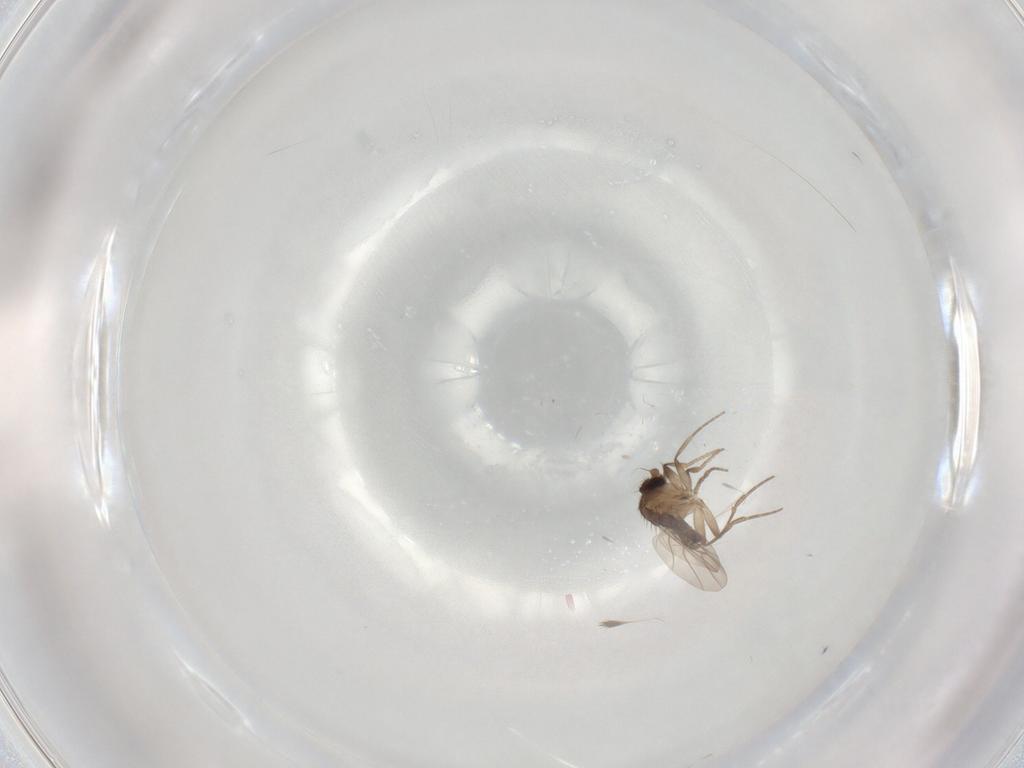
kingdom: Animalia
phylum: Arthropoda
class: Insecta
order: Diptera
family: Phoridae
